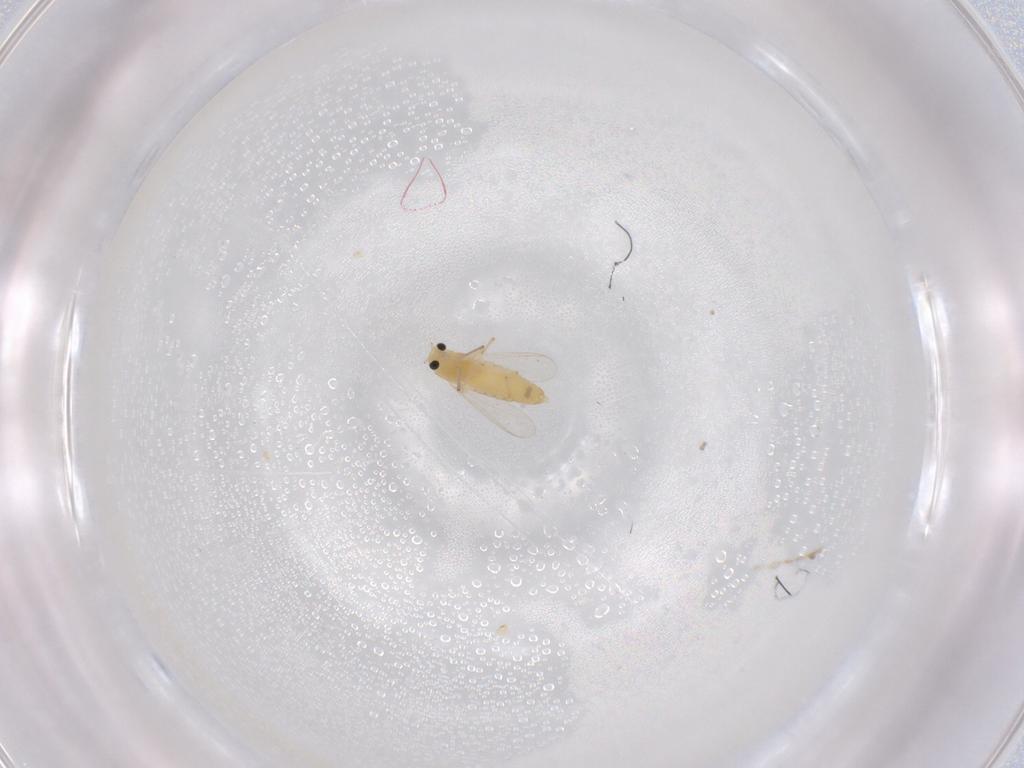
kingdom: Animalia
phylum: Arthropoda
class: Insecta
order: Diptera
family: Chironomidae
